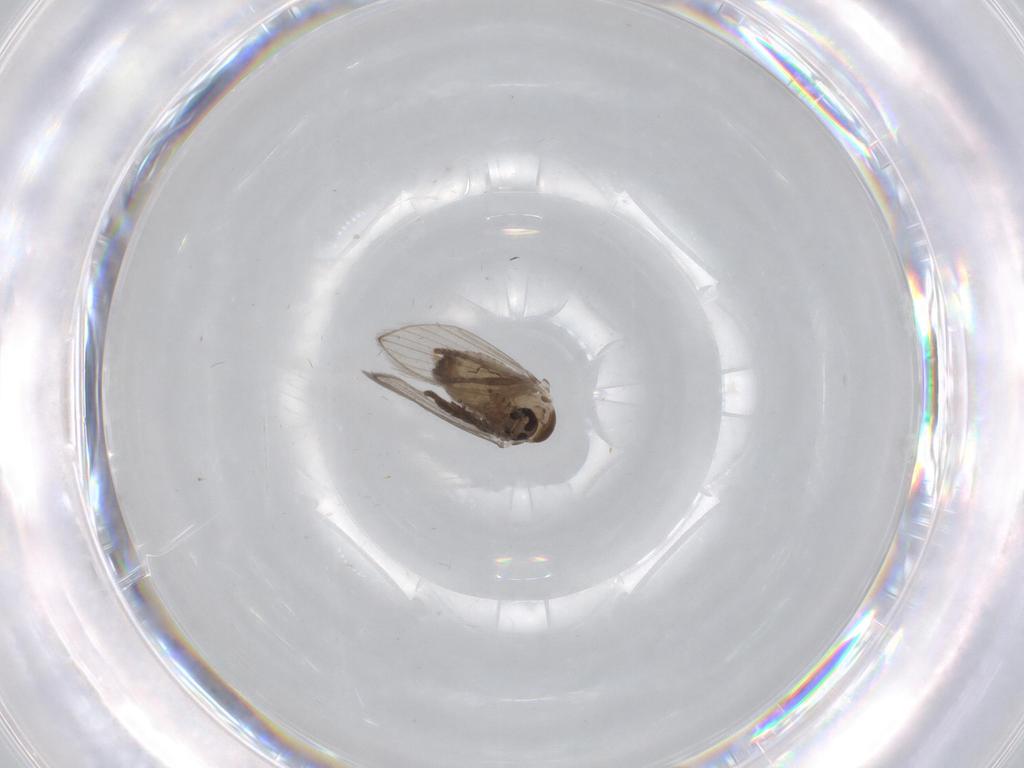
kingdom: Animalia
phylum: Arthropoda
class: Insecta
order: Diptera
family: Psychodidae
